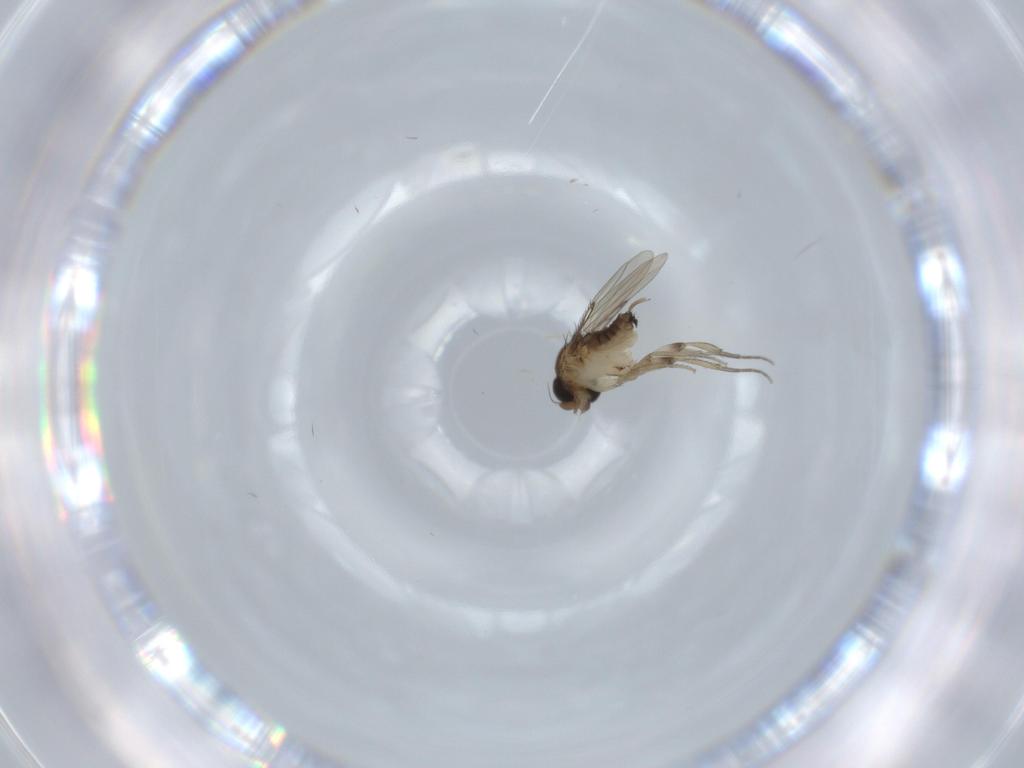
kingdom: Animalia
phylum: Arthropoda
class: Insecta
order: Diptera
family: Phoridae
